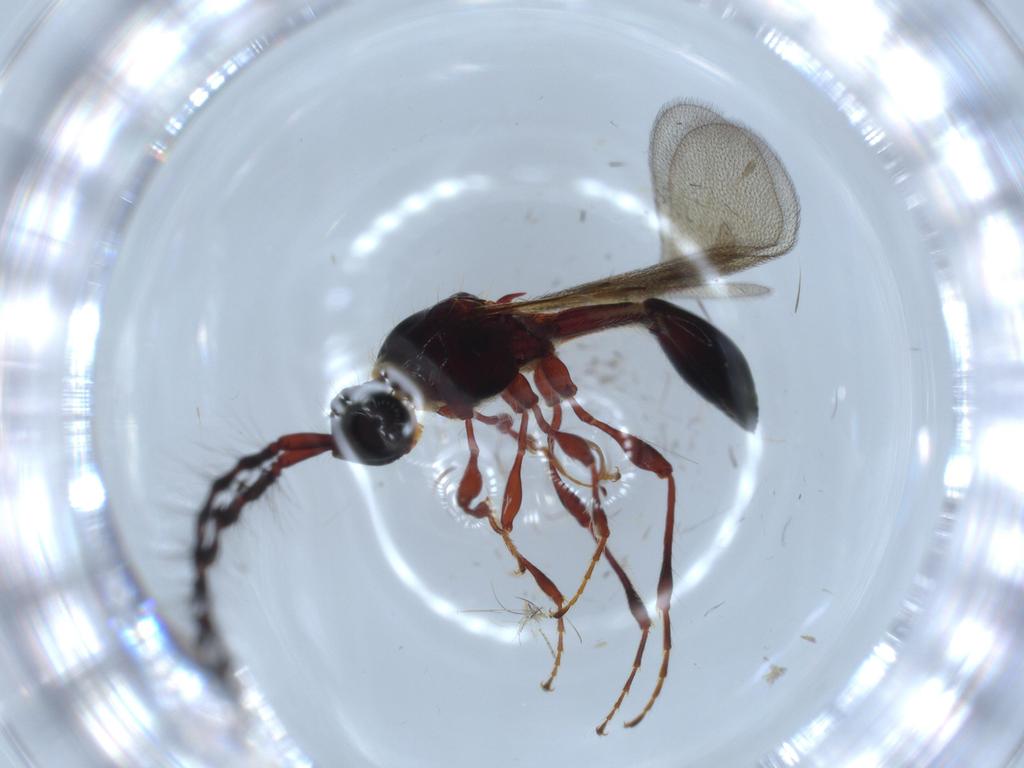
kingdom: Animalia
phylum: Arthropoda
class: Insecta
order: Hymenoptera
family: Diapriidae
